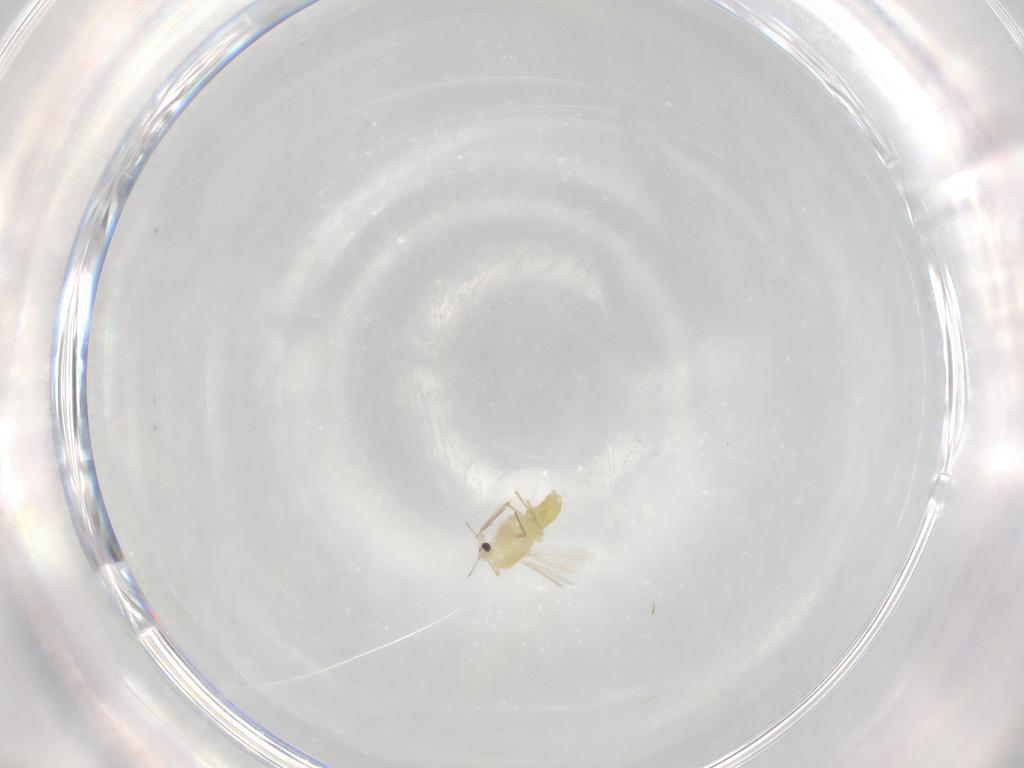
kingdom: Animalia
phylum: Arthropoda
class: Insecta
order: Diptera
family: Chironomidae
